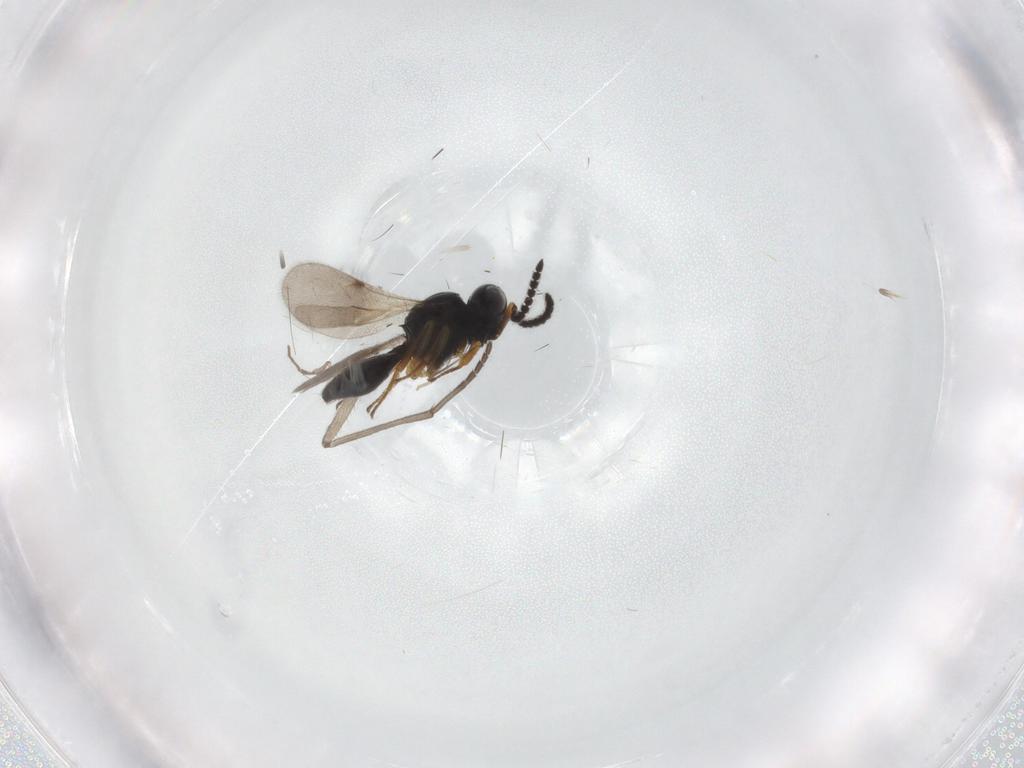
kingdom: Animalia
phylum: Arthropoda
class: Insecta
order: Hymenoptera
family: Scelionidae
